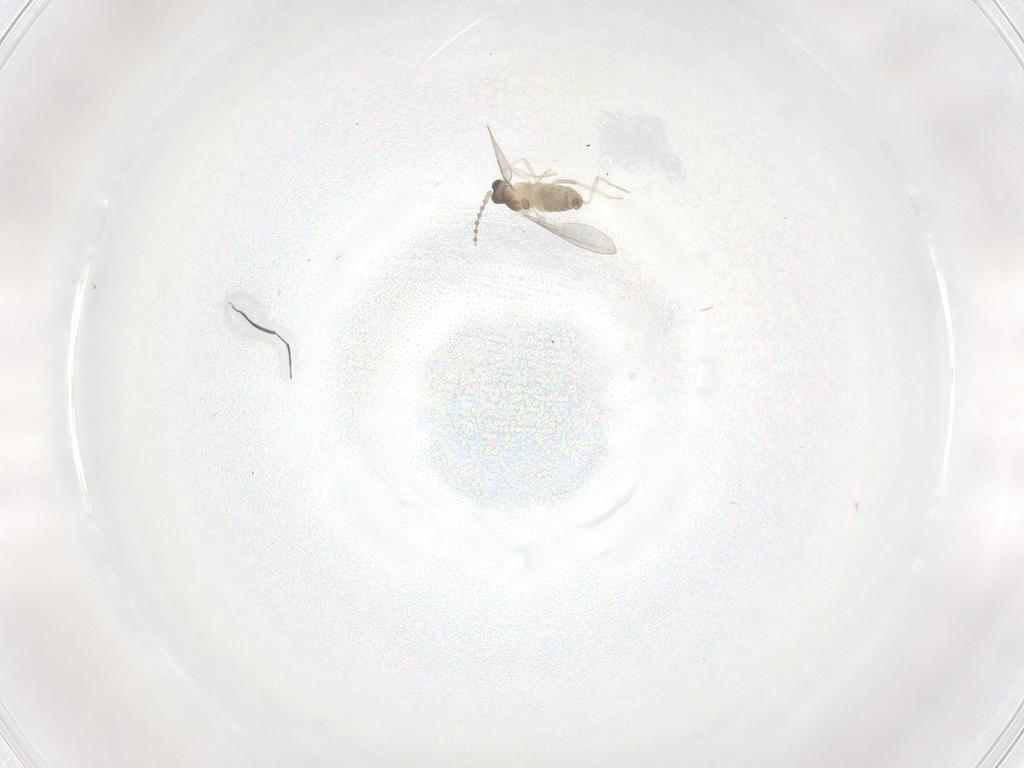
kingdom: Animalia
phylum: Arthropoda
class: Insecta
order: Diptera
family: Cecidomyiidae
